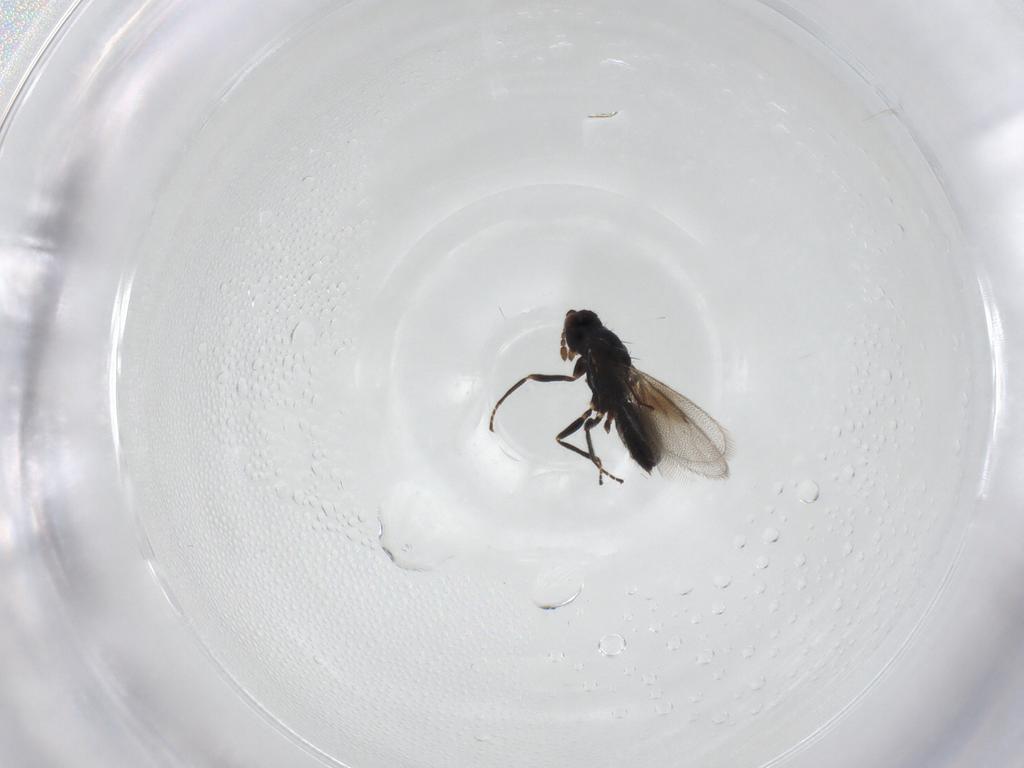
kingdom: Animalia
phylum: Arthropoda
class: Insecta
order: Hymenoptera
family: Eulophidae
